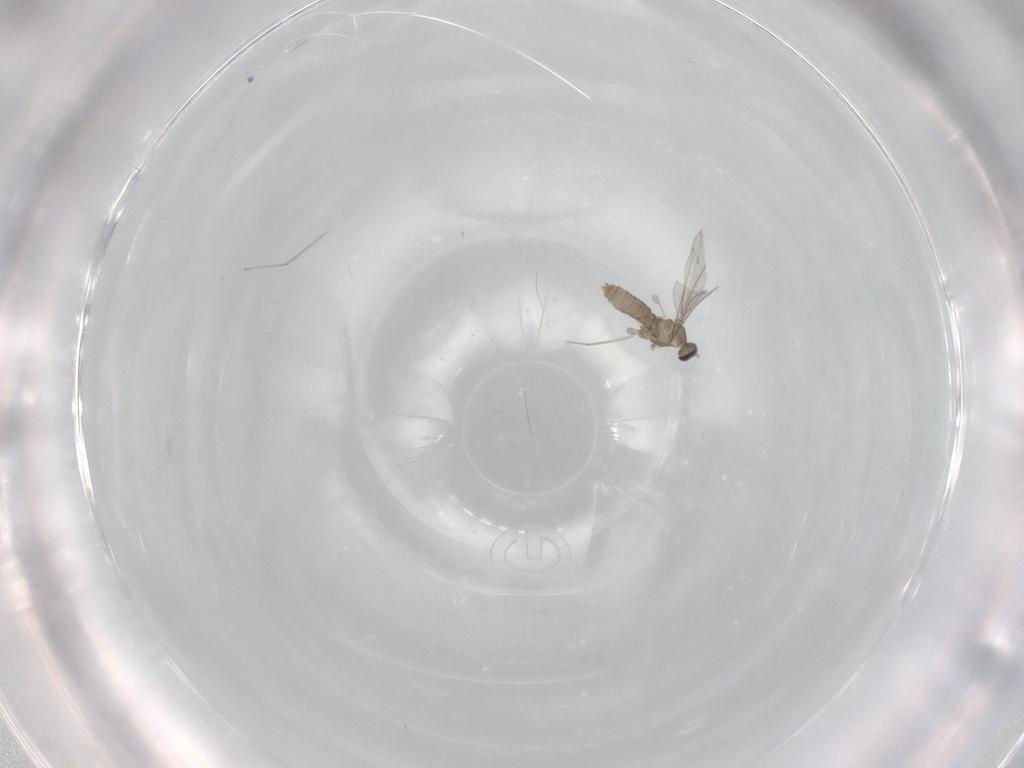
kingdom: Animalia
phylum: Arthropoda
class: Insecta
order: Diptera
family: Cecidomyiidae
